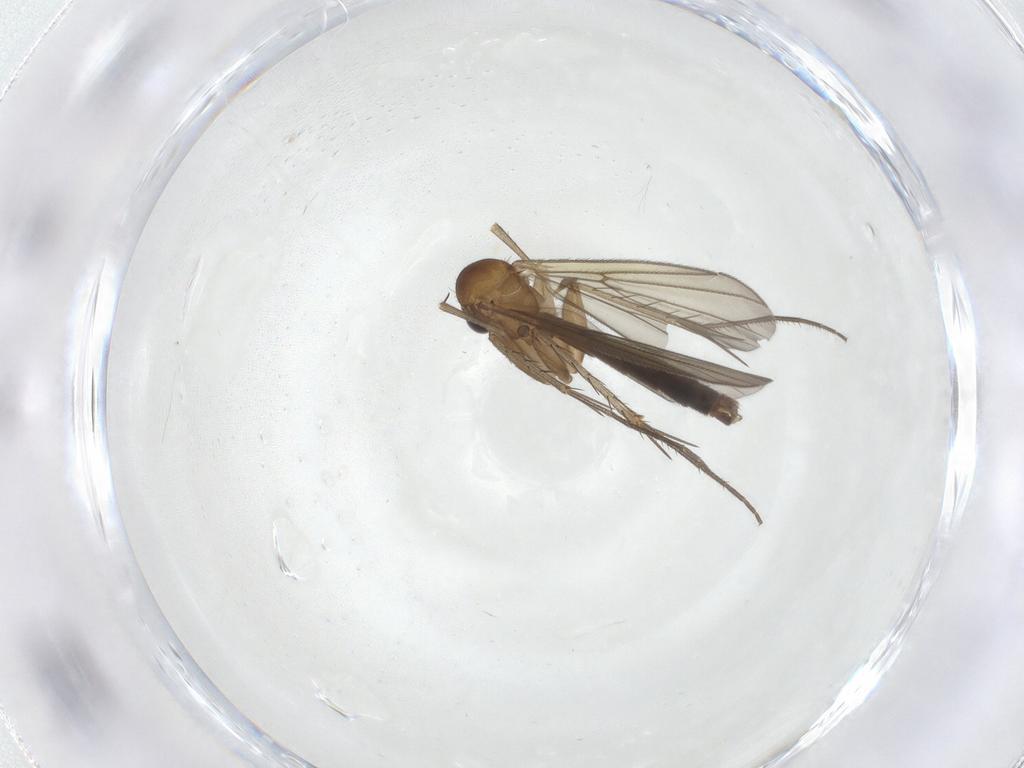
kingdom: Animalia
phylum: Arthropoda
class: Insecta
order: Diptera
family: Mycetophilidae
